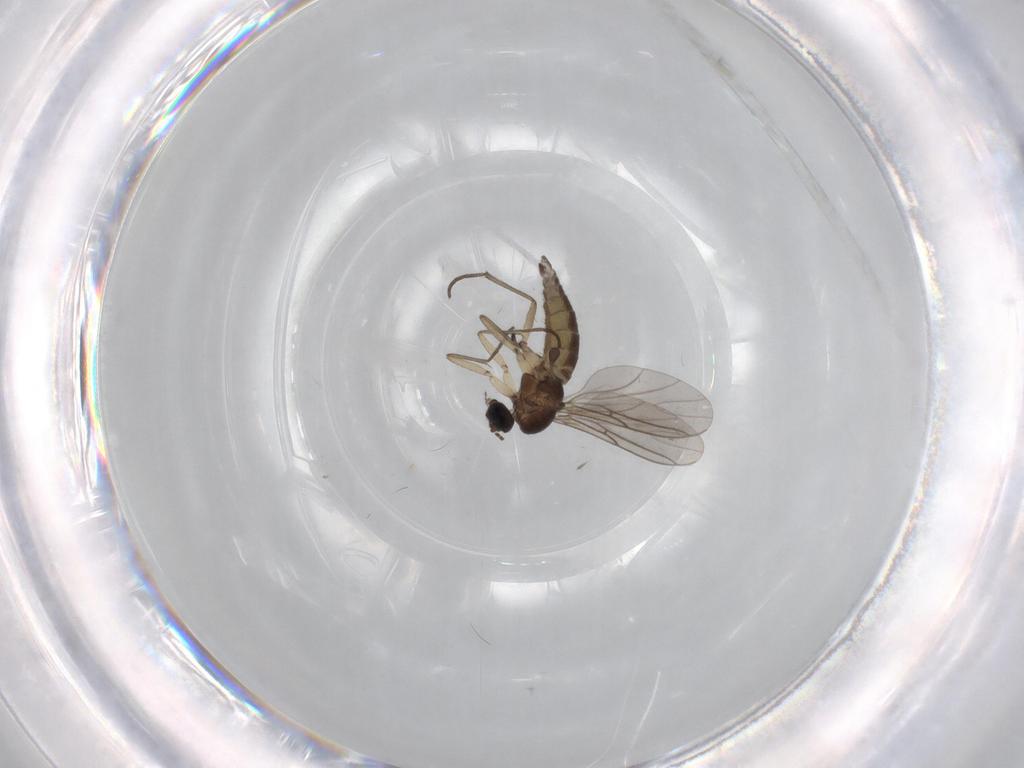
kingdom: Animalia
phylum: Arthropoda
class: Insecta
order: Diptera
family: Sciaridae
